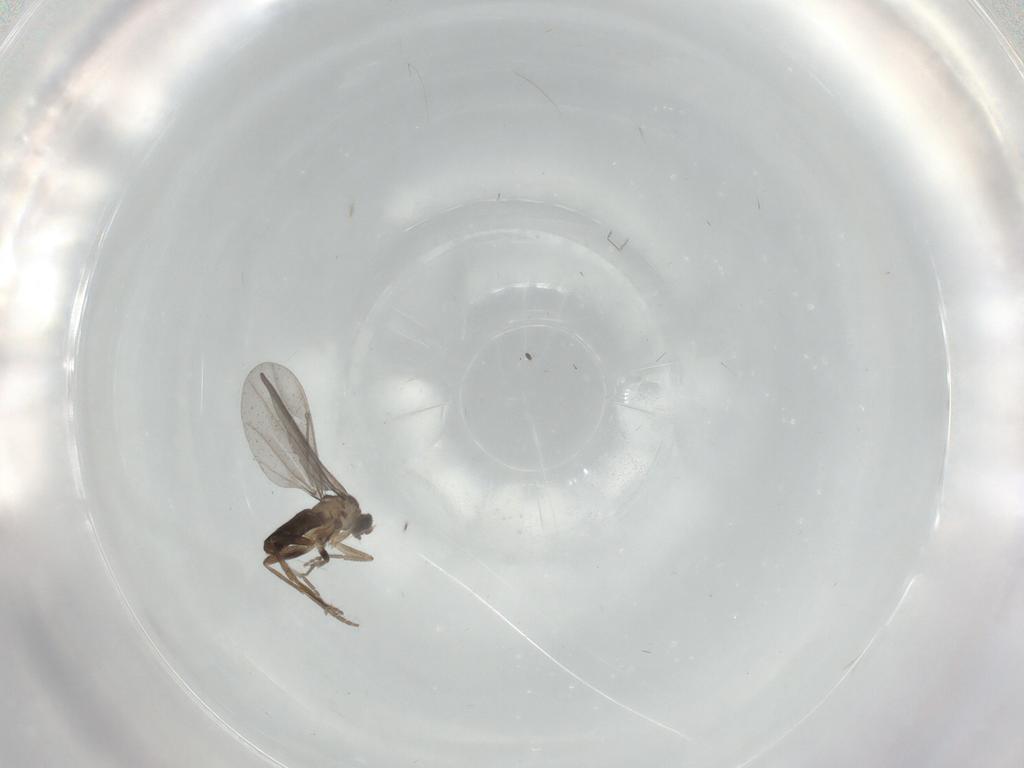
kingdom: Animalia
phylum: Arthropoda
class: Insecta
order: Diptera
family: Cecidomyiidae
